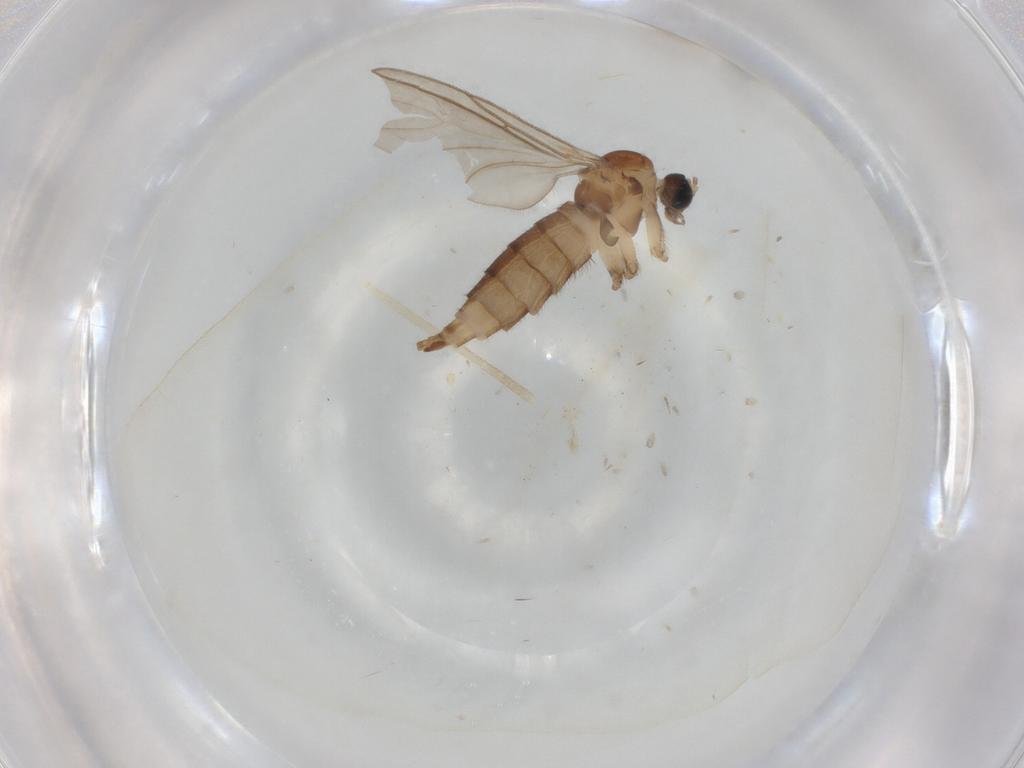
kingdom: Animalia
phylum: Arthropoda
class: Insecta
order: Diptera
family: Sciaridae
